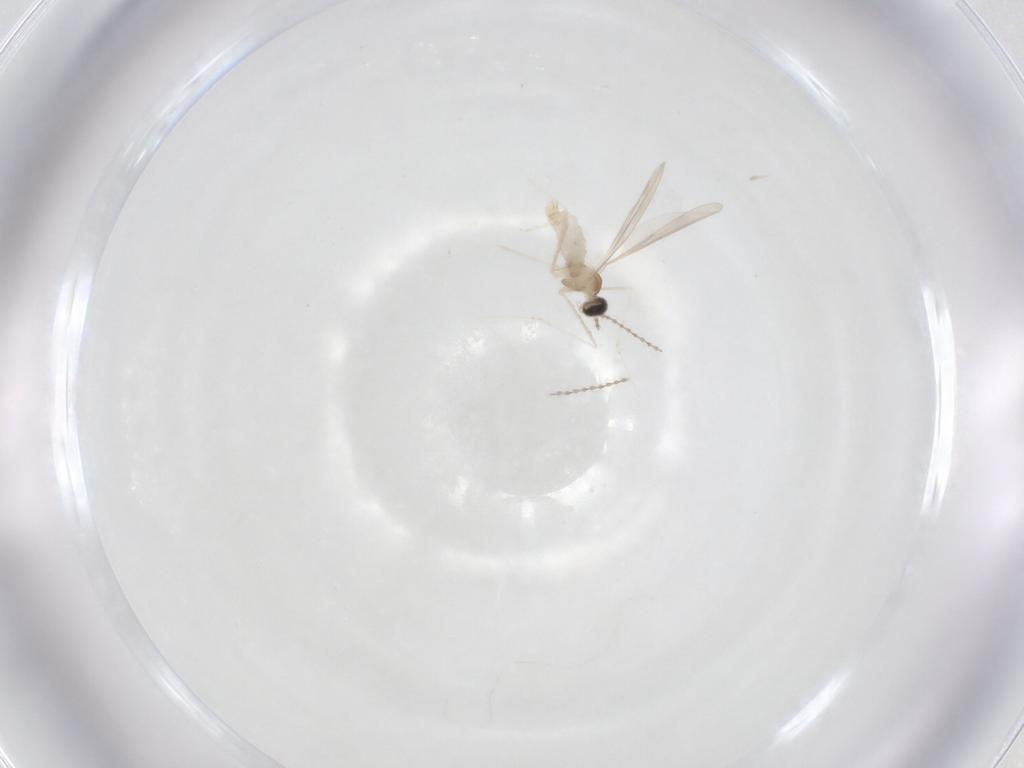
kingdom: Animalia
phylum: Arthropoda
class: Insecta
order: Diptera
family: Cecidomyiidae
